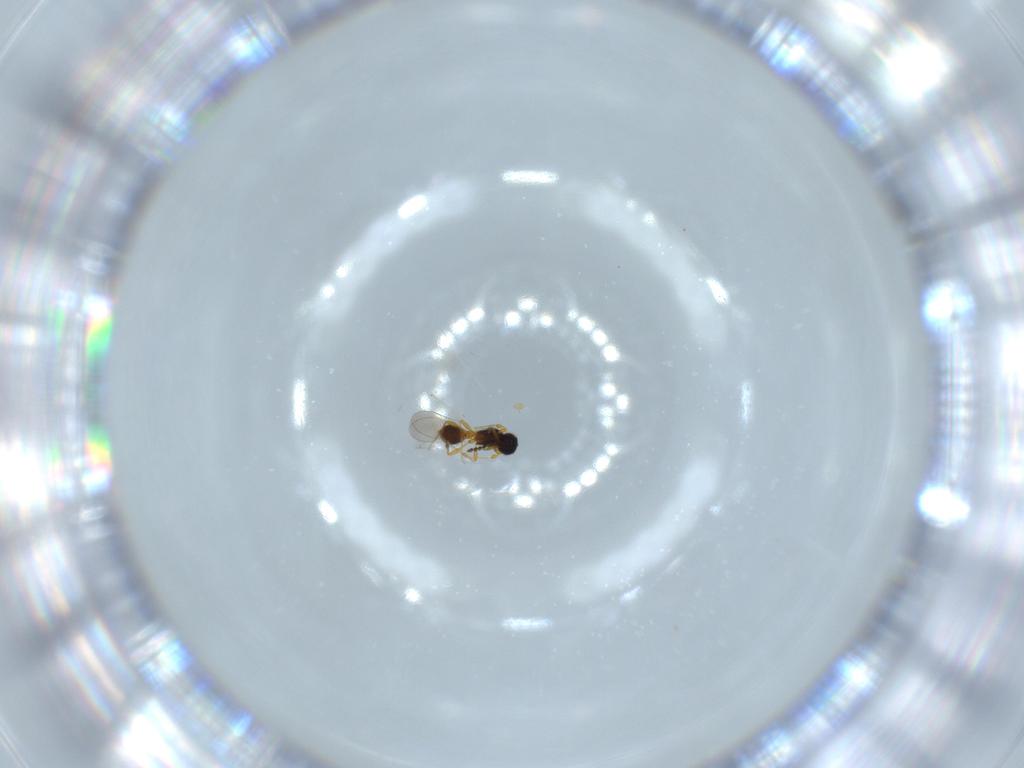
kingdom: Animalia
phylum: Arthropoda
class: Insecta
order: Hymenoptera
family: Platygastridae
